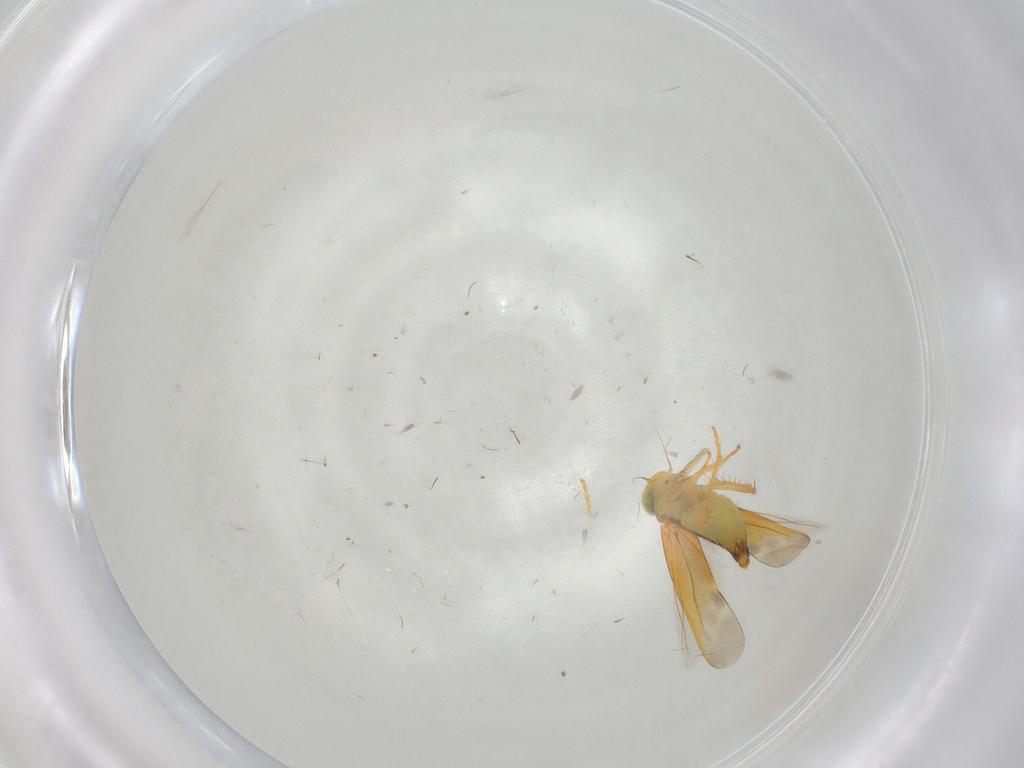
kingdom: Animalia
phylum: Arthropoda
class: Insecta
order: Hemiptera
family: Cicadellidae
